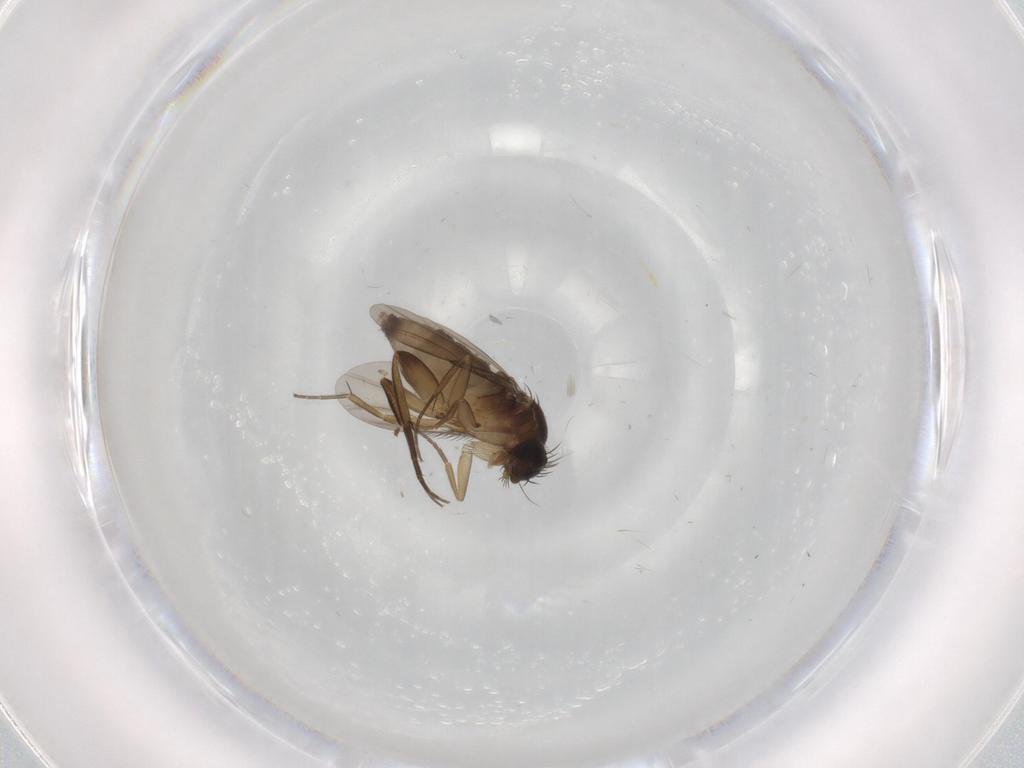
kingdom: Animalia
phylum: Arthropoda
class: Insecta
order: Diptera
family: Phoridae
